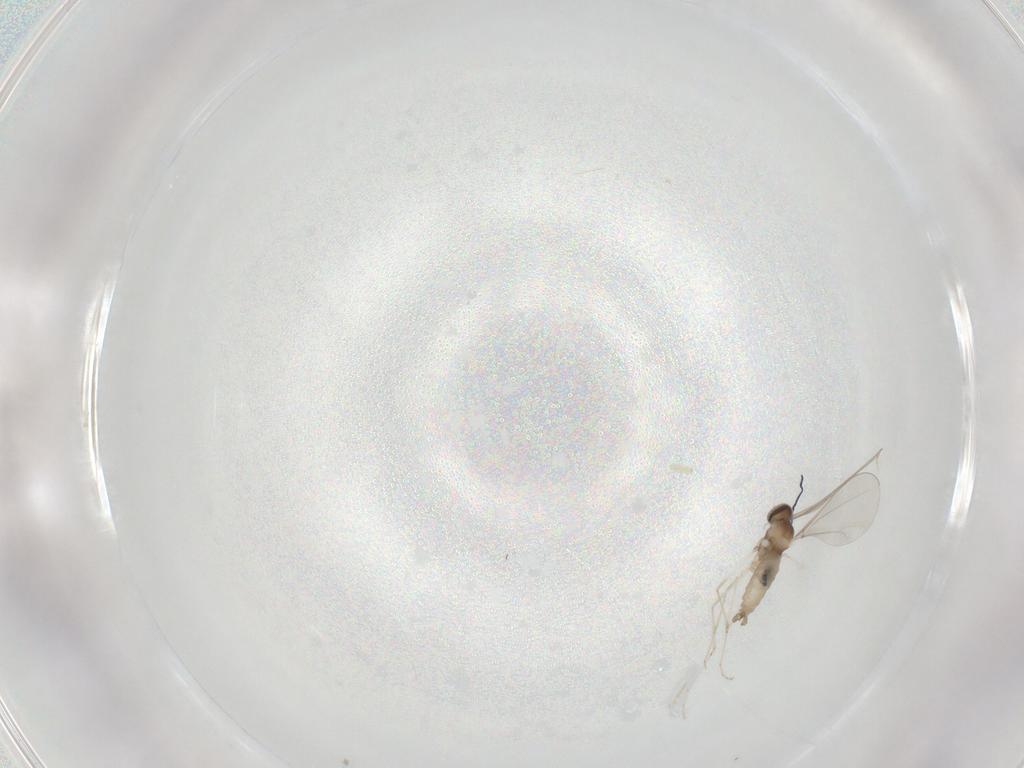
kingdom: Animalia
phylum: Arthropoda
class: Insecta
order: Diptera
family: Cecidomyiidae
